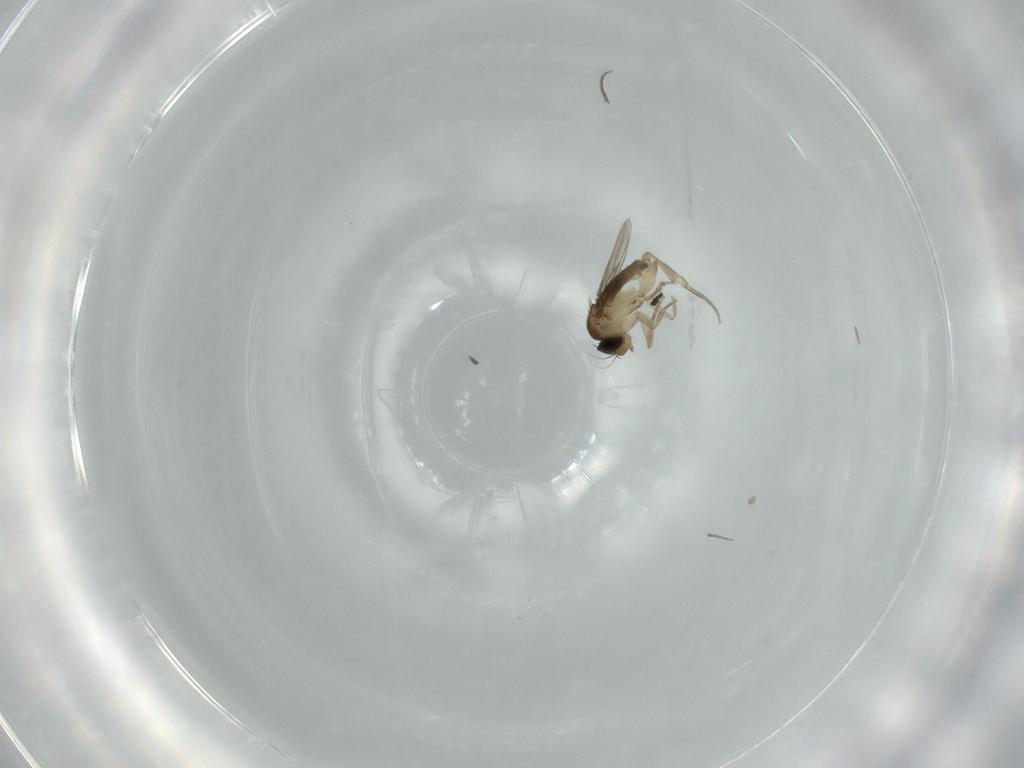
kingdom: Animalia
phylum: Arthropoda
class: Insecta
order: Diptera
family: Phoridae
